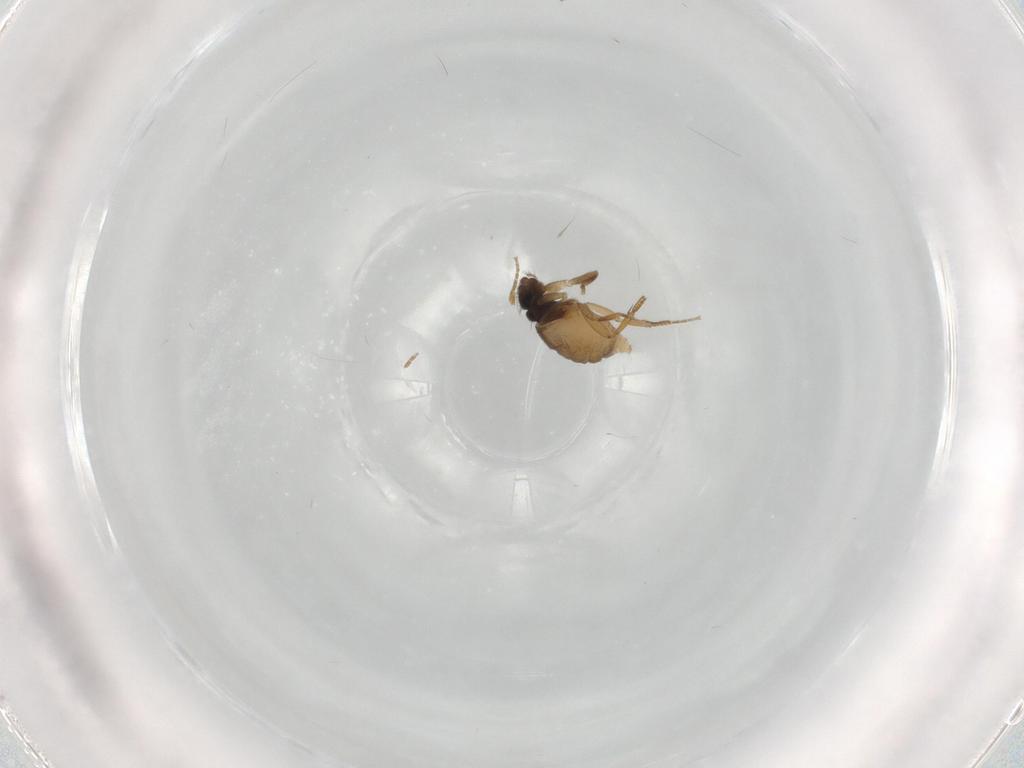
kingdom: Animalia
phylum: Arthropoda
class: Insecta
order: Diptera
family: Phoridae
